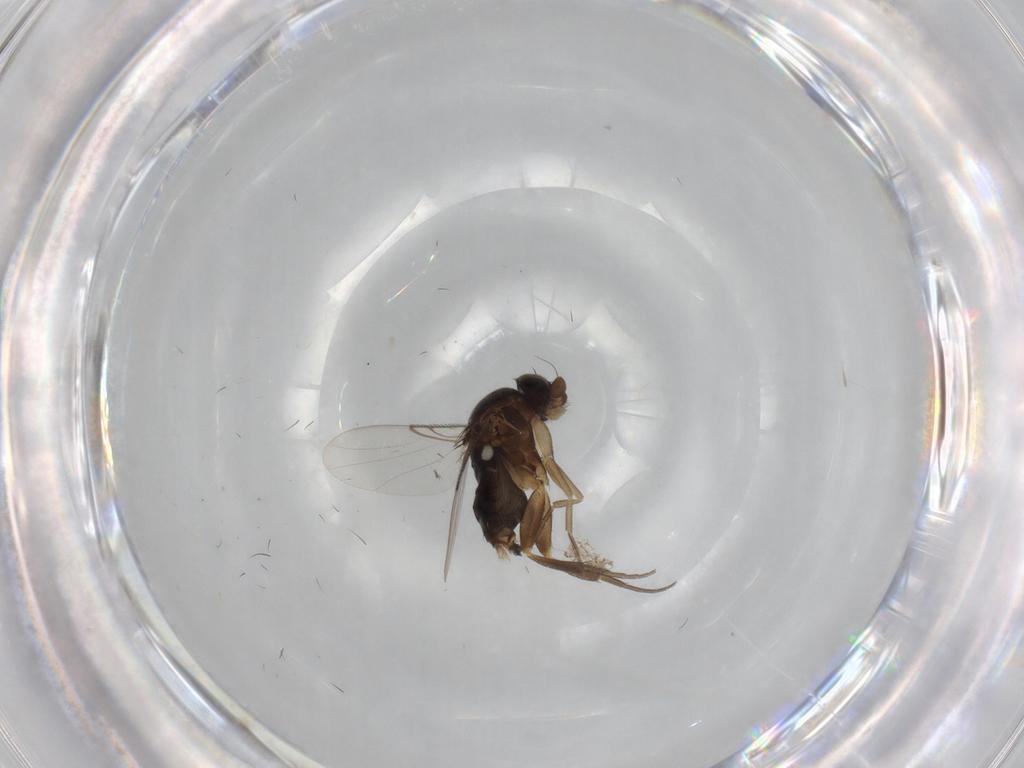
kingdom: Animalia
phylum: Arthropoda
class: Insecta
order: Diptera
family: Phoridae
